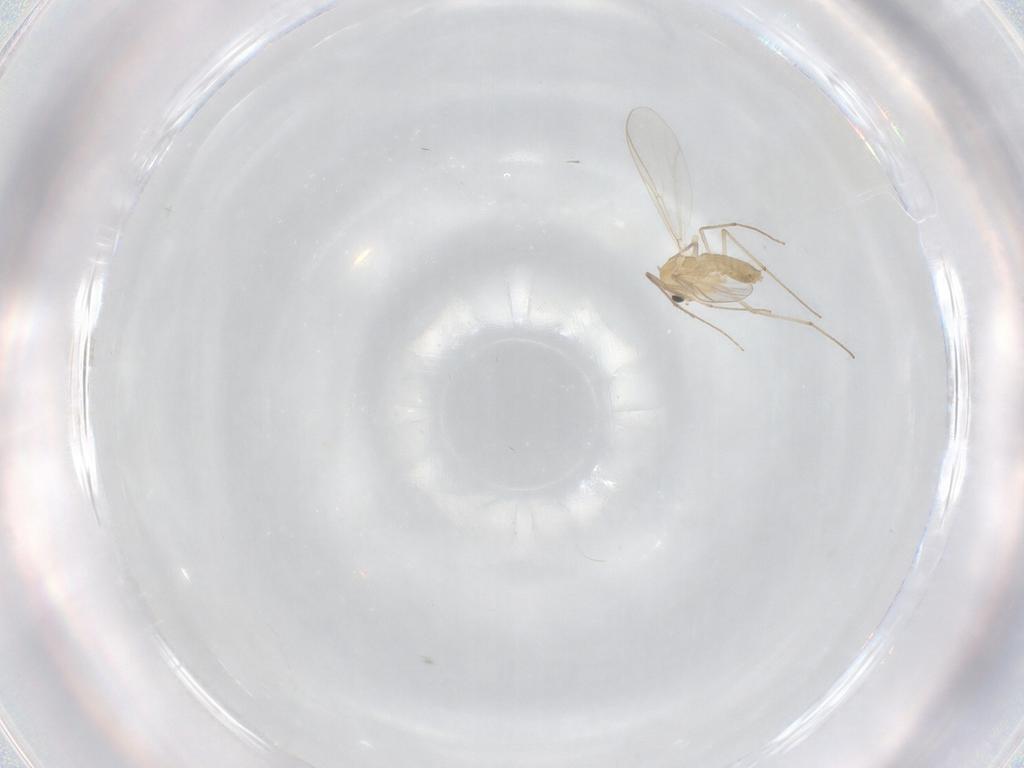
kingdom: Animalia
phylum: Arthropoda
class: Insecta
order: Diptera
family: Chironomidae
